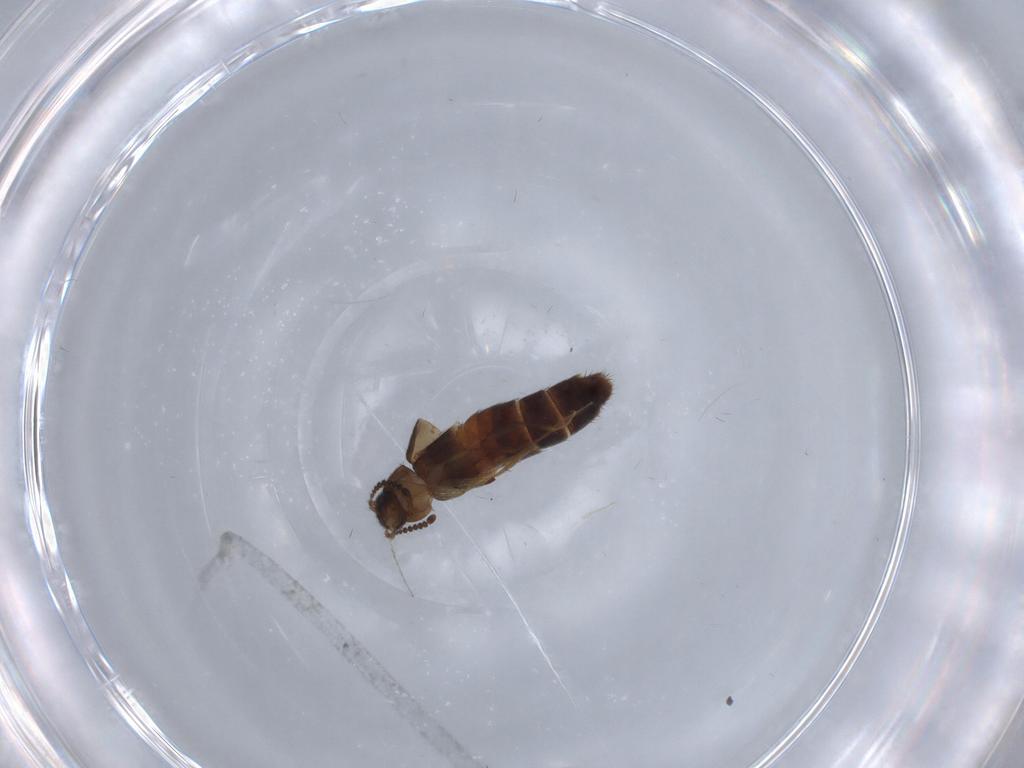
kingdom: Animalia
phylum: Arthropoda
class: Insecta
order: Coleoptera
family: Staphylinidae
